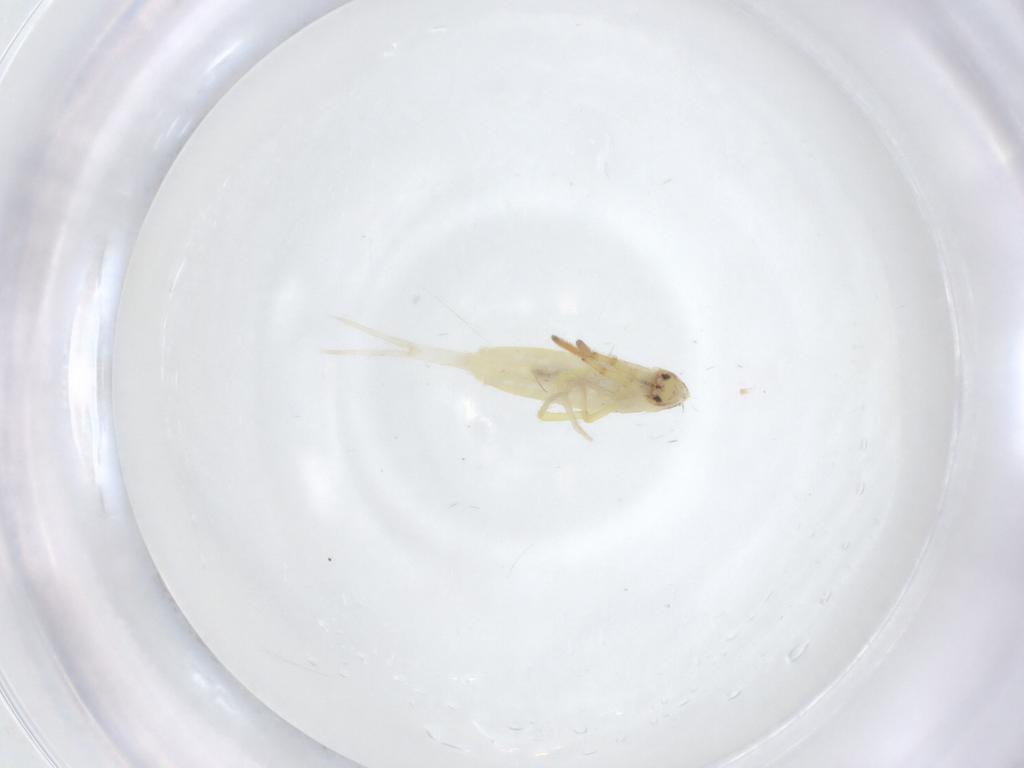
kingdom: Animalia
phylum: Arthropoda
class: Collembola
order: Entomobryomorpha
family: Entomobryidae
